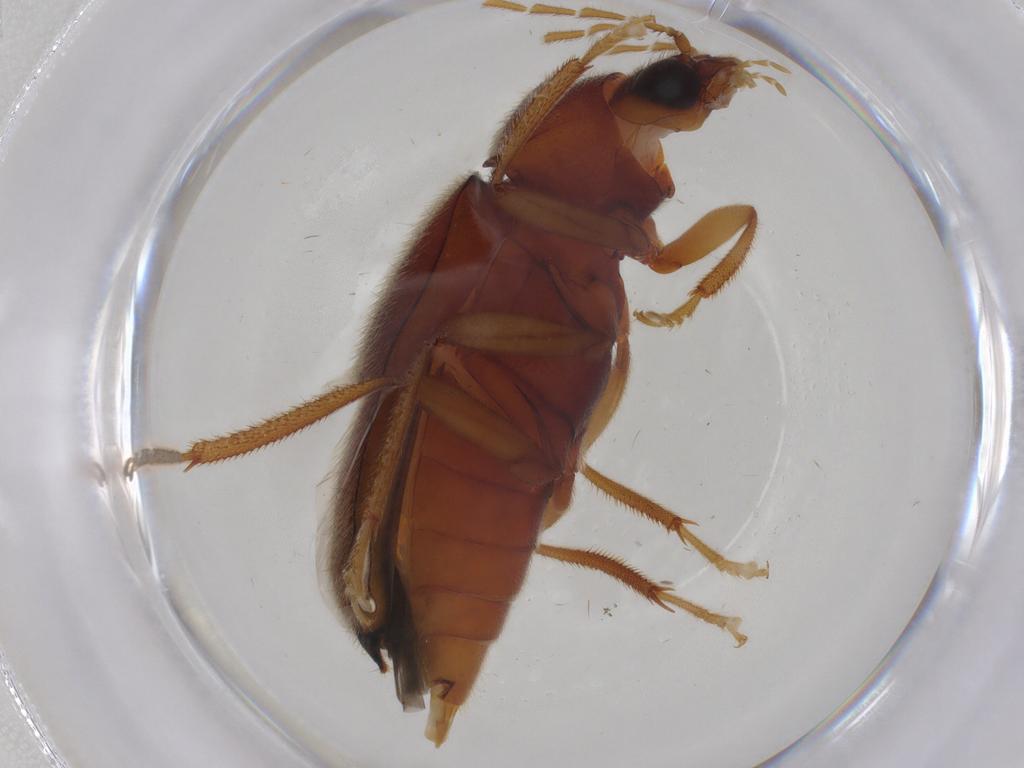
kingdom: Animalia
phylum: Arthropoda
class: Insecta
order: Coleoptera
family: Ptilodactylidae
